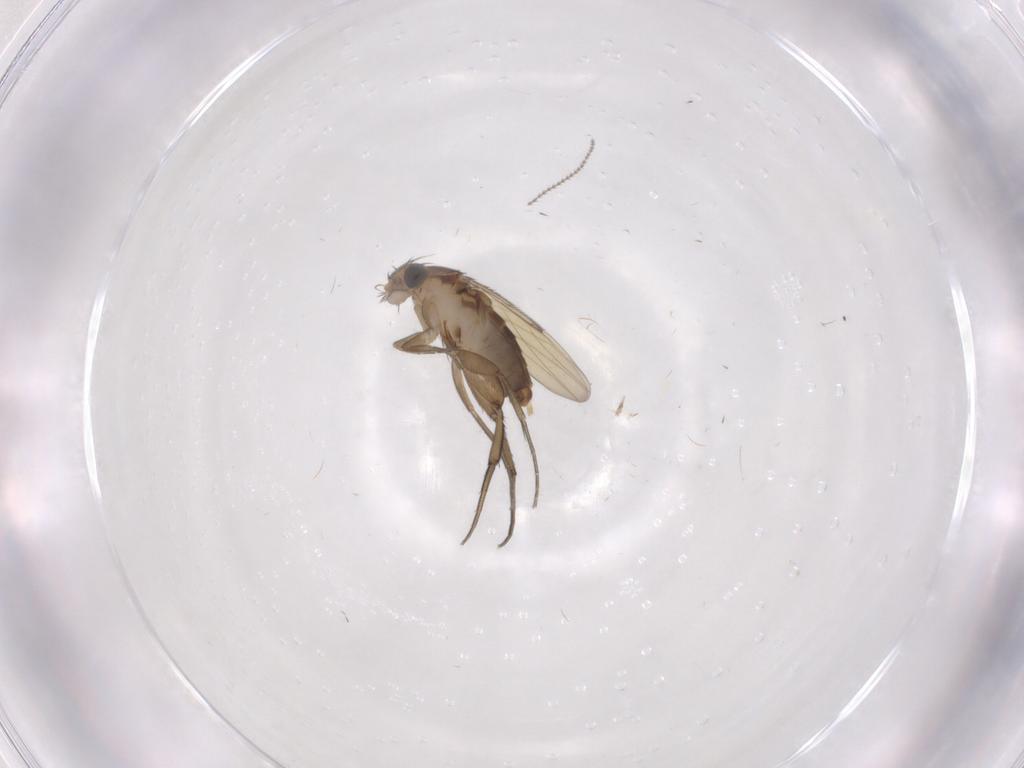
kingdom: Animalia
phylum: Arthropoda
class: Insecta
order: Diptera
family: Phoridae
